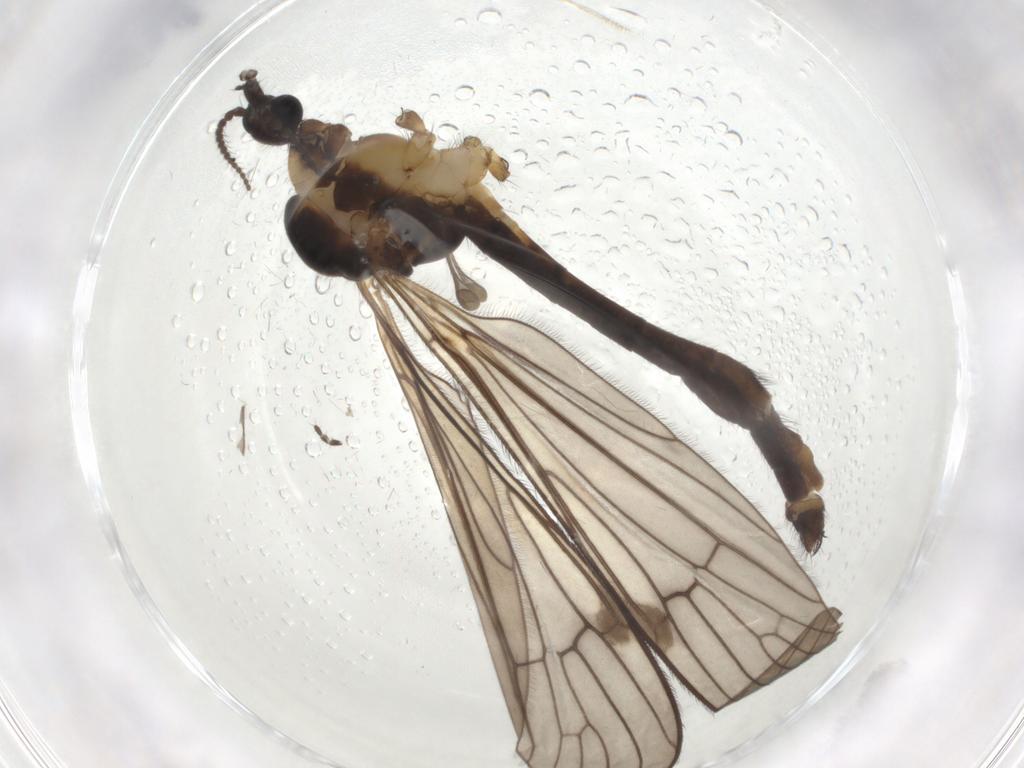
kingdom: Animalia
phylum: Arthropoda
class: Insecta
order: Diptera
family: Limoniidae
